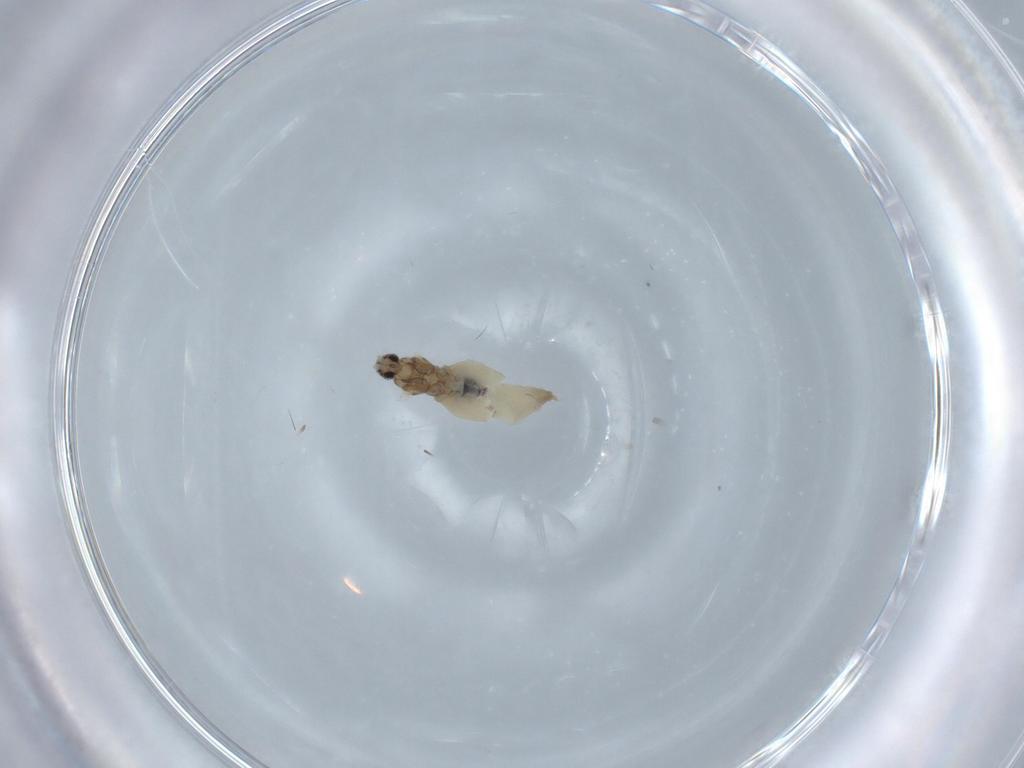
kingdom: Animalia
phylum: Arthropoda
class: Insecta
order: Diptera
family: Cecidomyiidae
